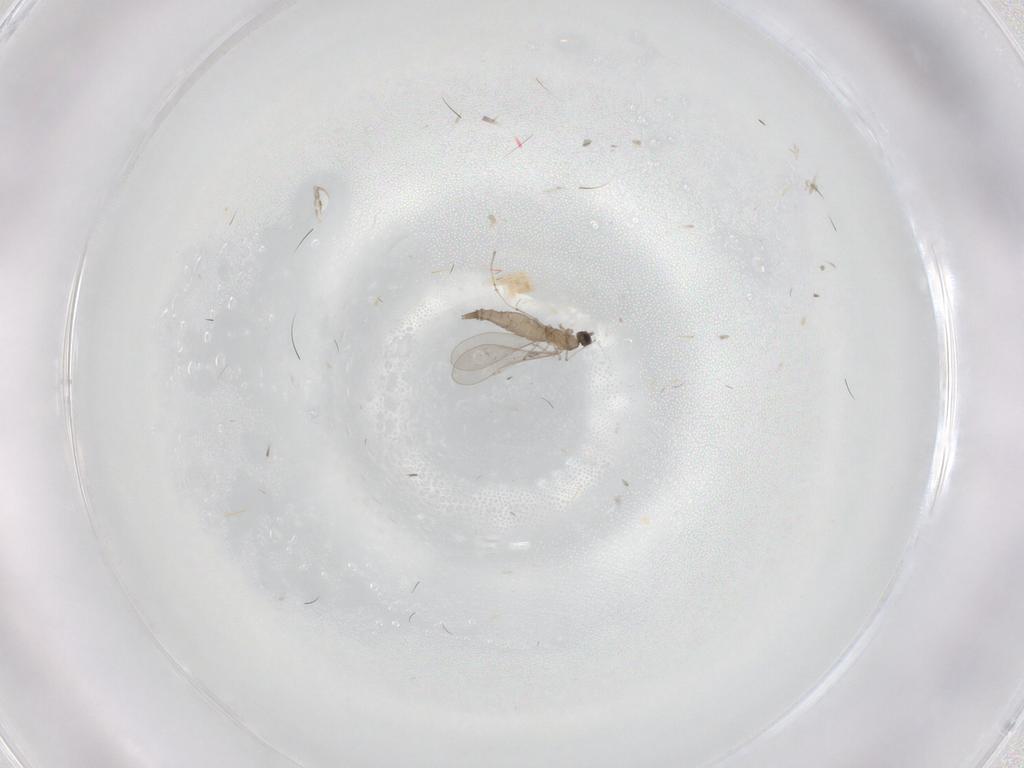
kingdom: Animalia
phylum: Arthropoda
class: Insecta
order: Diptera
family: Cecidomyiidae
